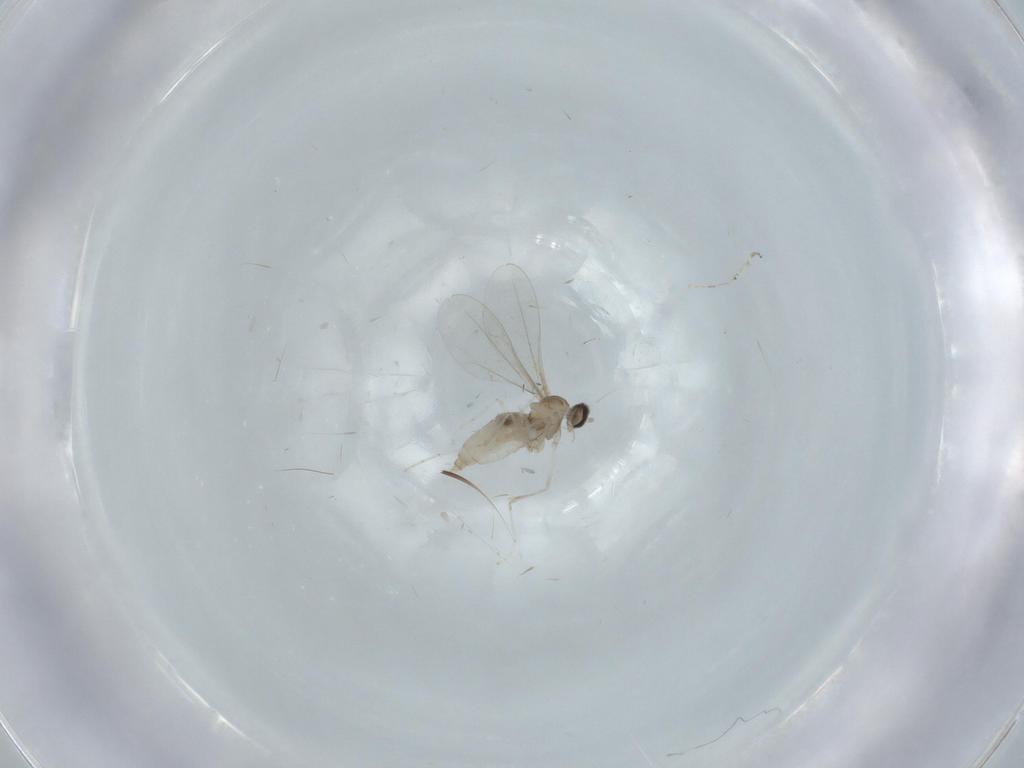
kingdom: Animalia
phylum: Arthropoda
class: Insecta
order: Diptera
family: Cecidomyiidae
